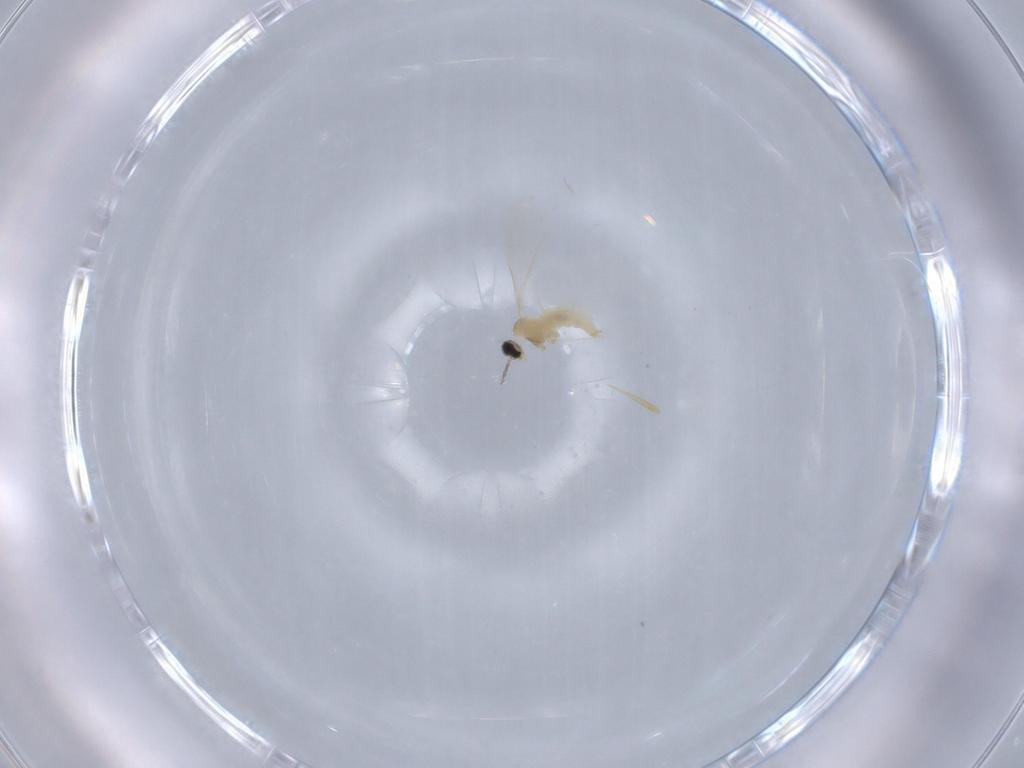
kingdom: Animalia
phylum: Arthropoda
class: Insecta
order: Diptera
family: Cecidomyiidae
